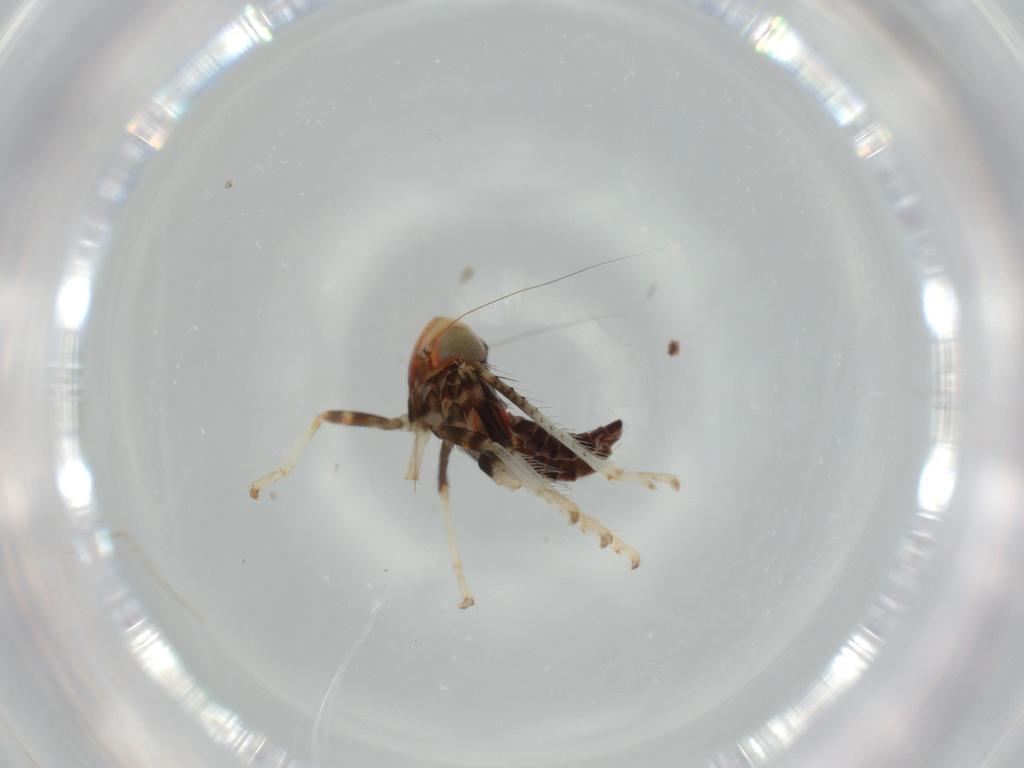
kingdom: Animalia
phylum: Arthropoda
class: Insecta
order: Hemiptera
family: Cicadellidae
